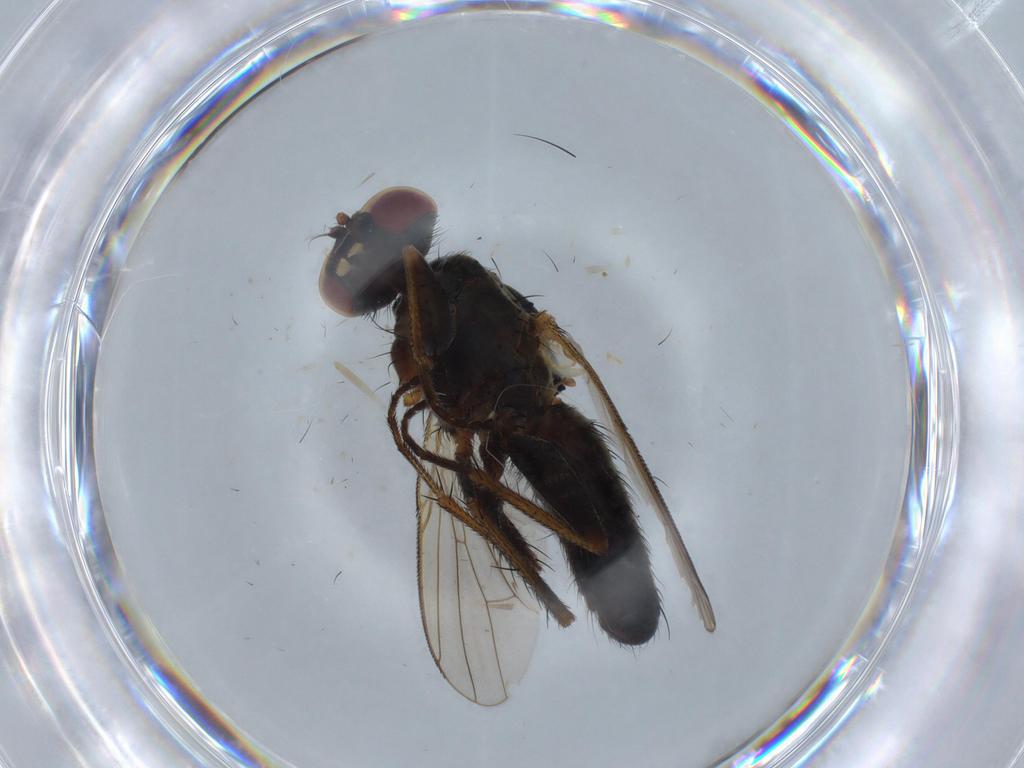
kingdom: Animalia
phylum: Arthropoda
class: Insecta
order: Diptera
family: Muscidae
